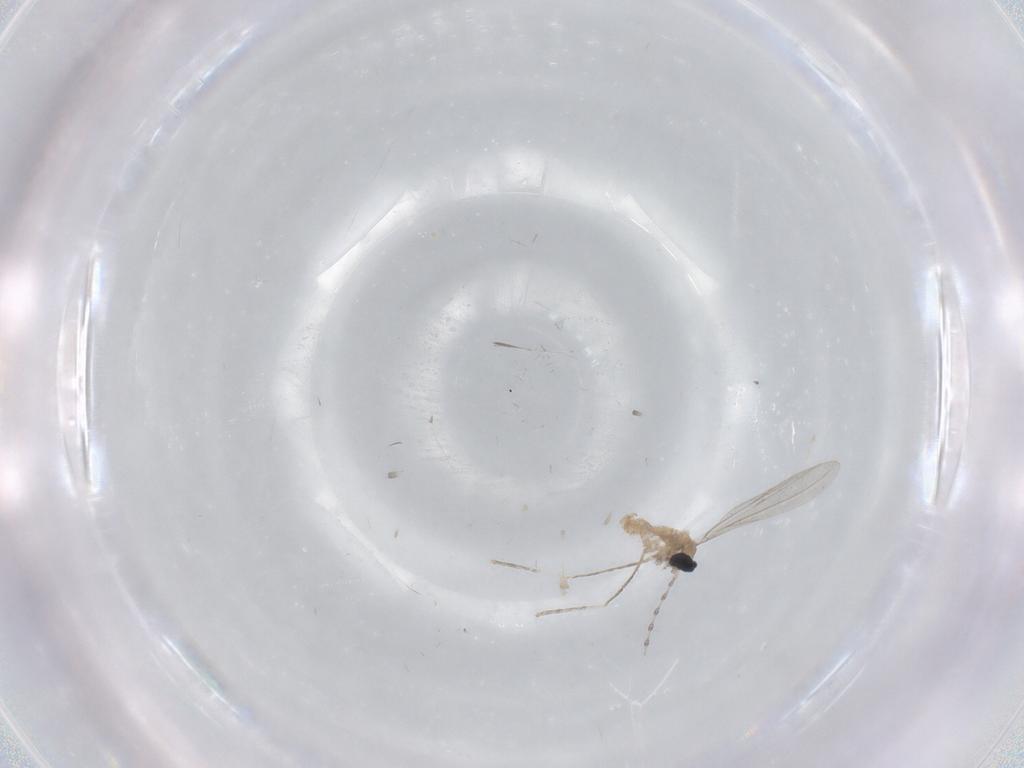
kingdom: Animalia
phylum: Arthropoda
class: Insecta
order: Diptera
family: Cecidomyiidae
